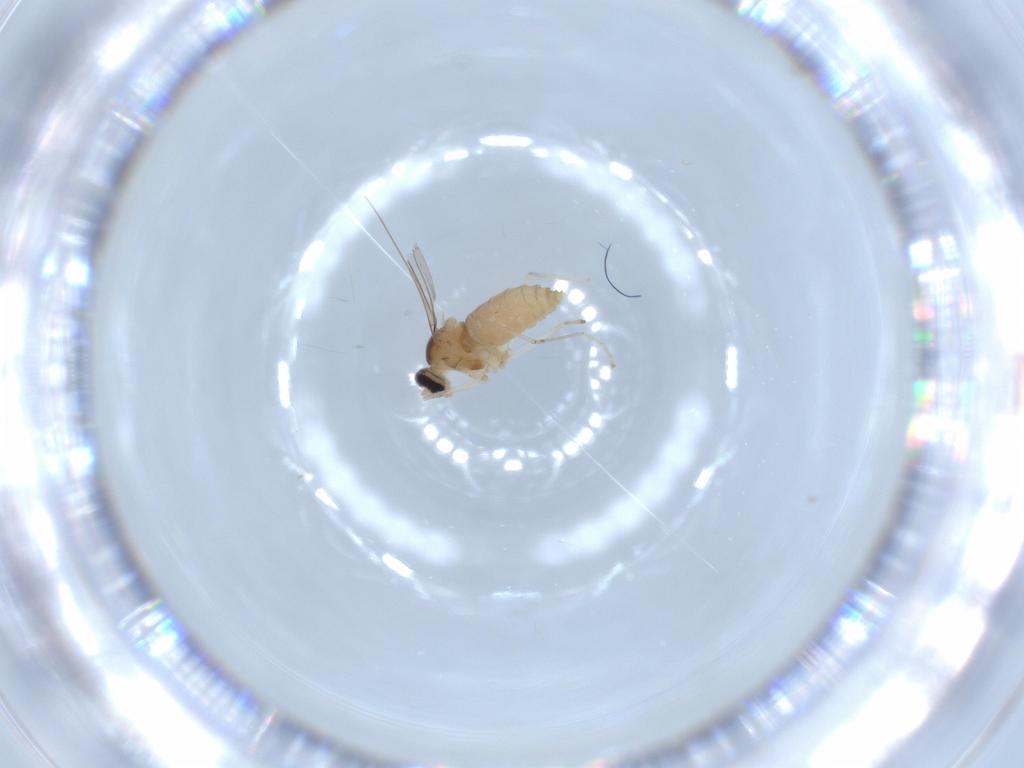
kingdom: Animalia
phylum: Arthropoda
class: Insecta
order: Diptera
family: Cecidomyiidae
